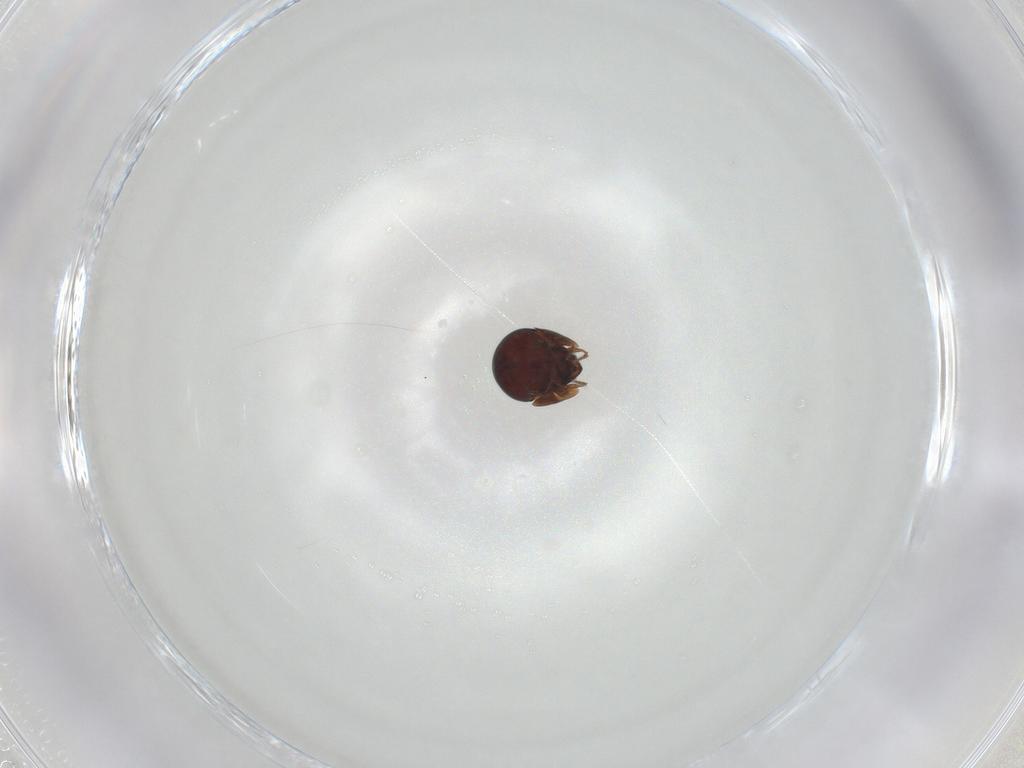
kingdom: Animalia
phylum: Arthropoda
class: Arachnida
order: Sarcoptiformes
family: Galumnidae
